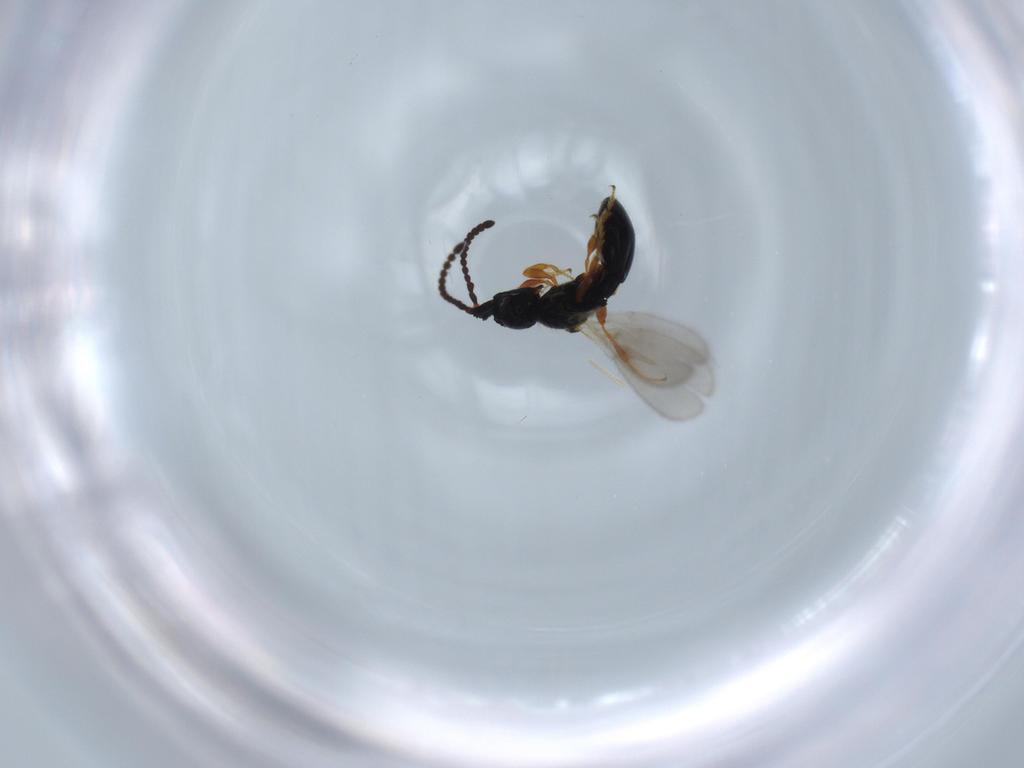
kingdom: Animalia
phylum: Arthropoda
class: Insecta
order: Hymenoptera
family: Diapriidae
